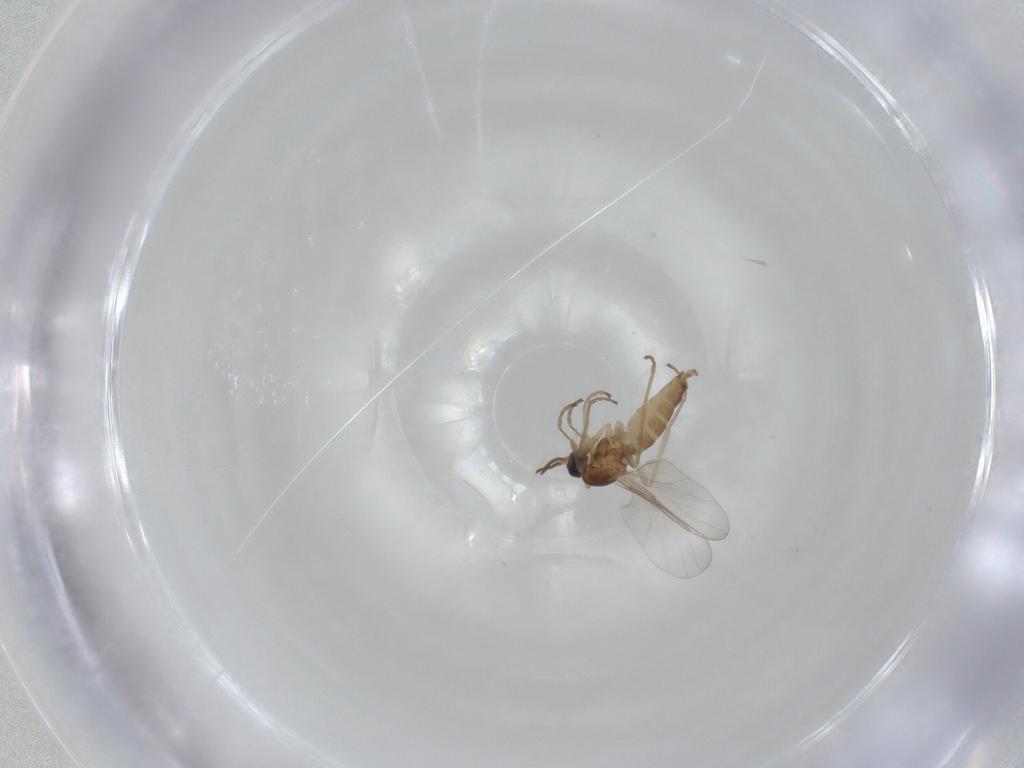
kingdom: Animalia
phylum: Arthropoda
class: Insecta
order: Diptera
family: Cecidomyiidae
